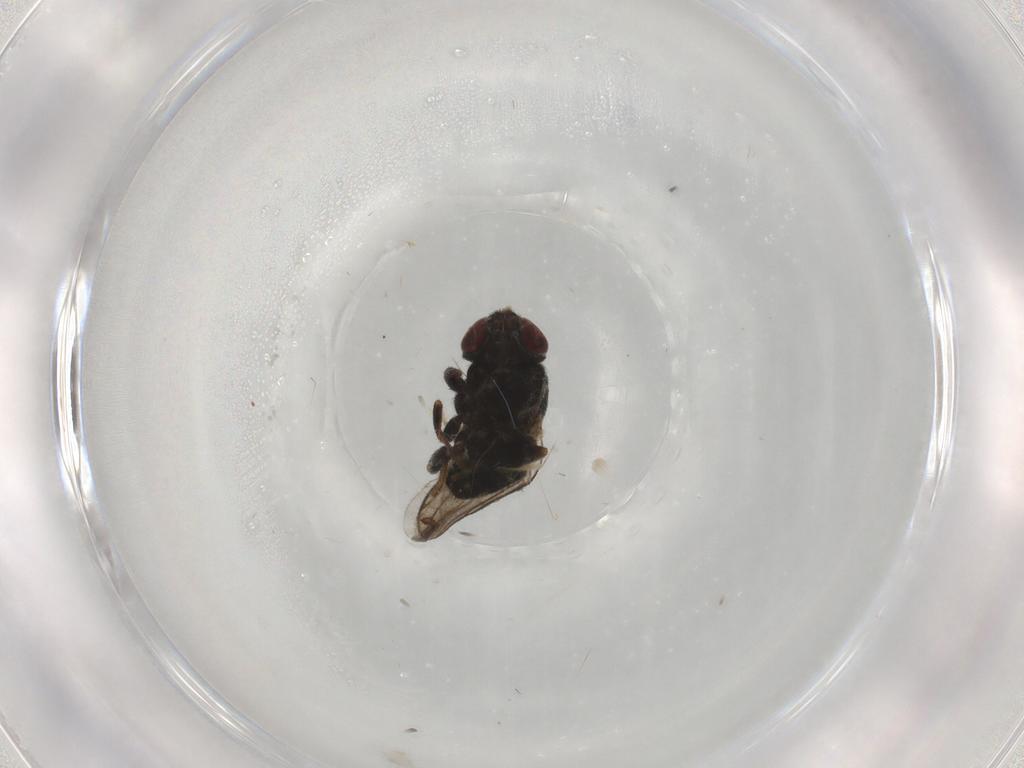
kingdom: Animalia
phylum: Arthropoda
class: Insecta
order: Diptera
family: Chloropidae
